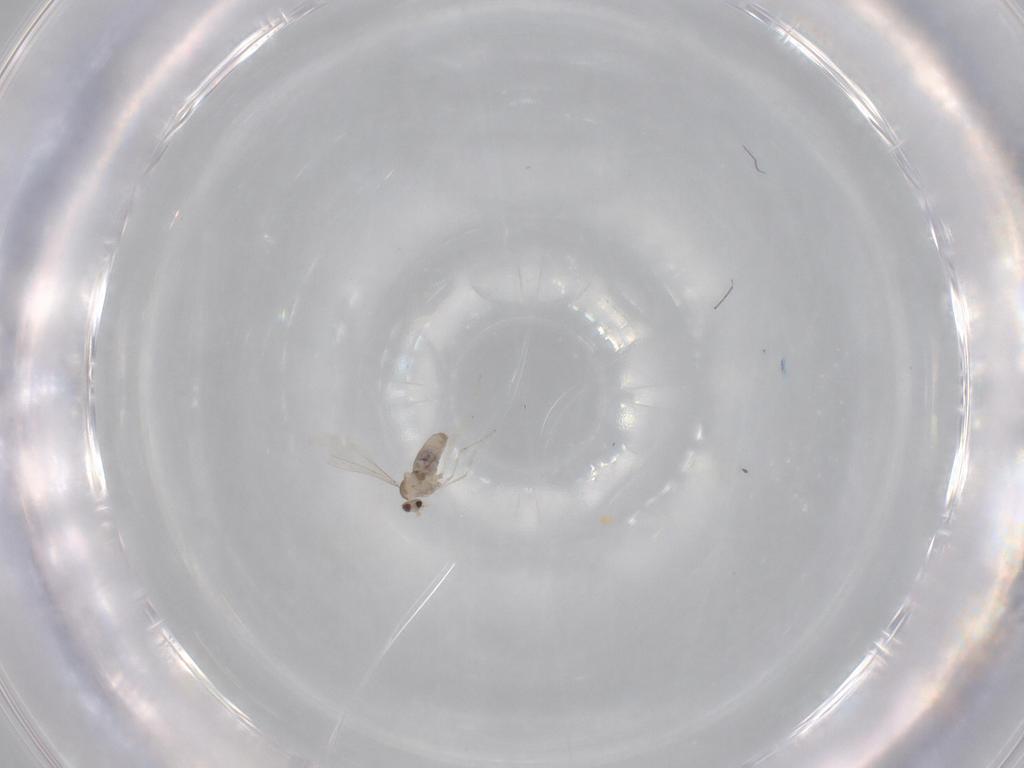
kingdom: Animalia
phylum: Arthropoda
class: Insecta
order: Diptera
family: Cecidomyiidae
